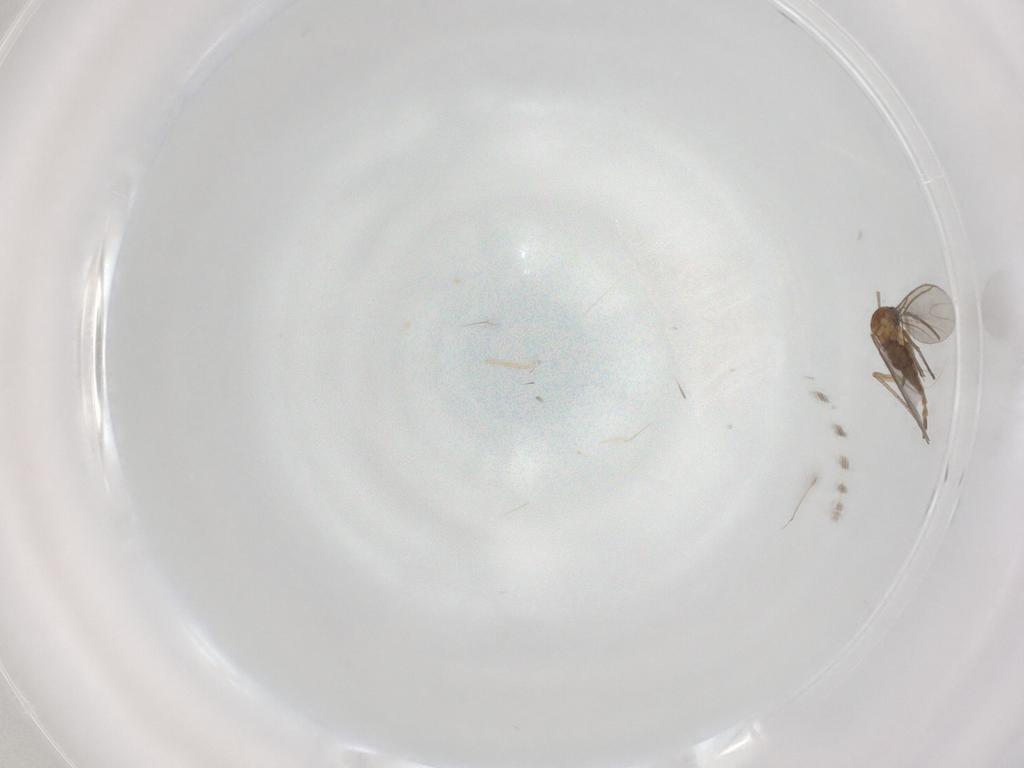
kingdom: Animalia
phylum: Arthropoda
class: Insecta
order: Diptera
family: Sciaridae
